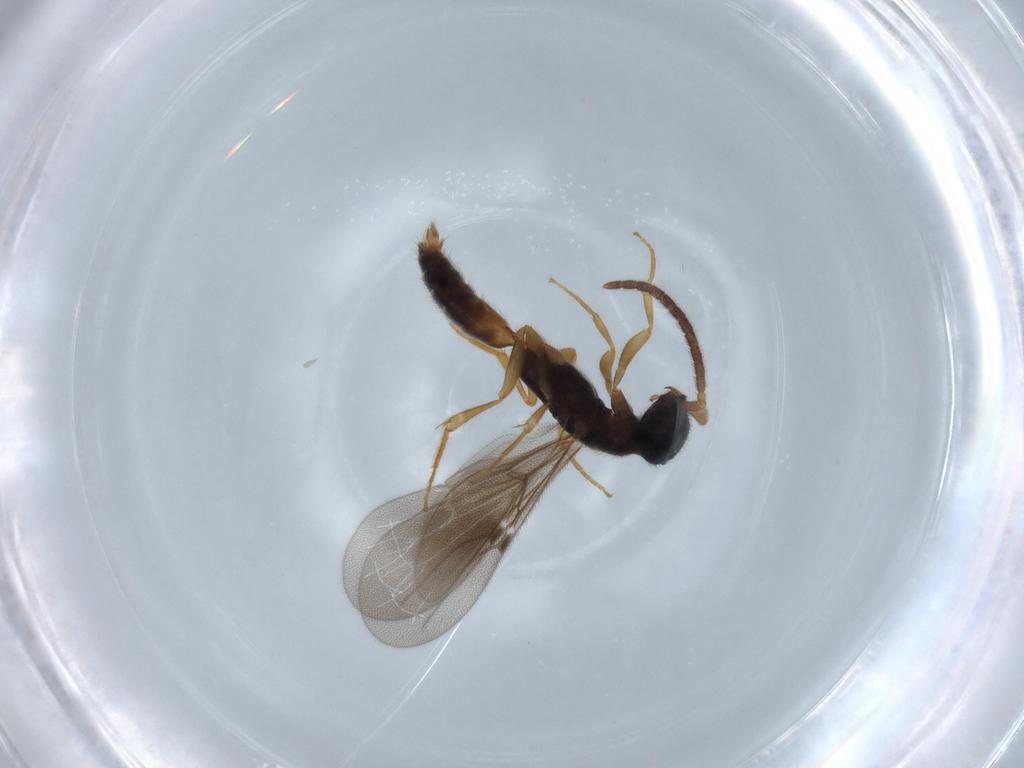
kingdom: Animalia
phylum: Arthropoda
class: Insecta
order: Hymenoptera
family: Bethylidae
